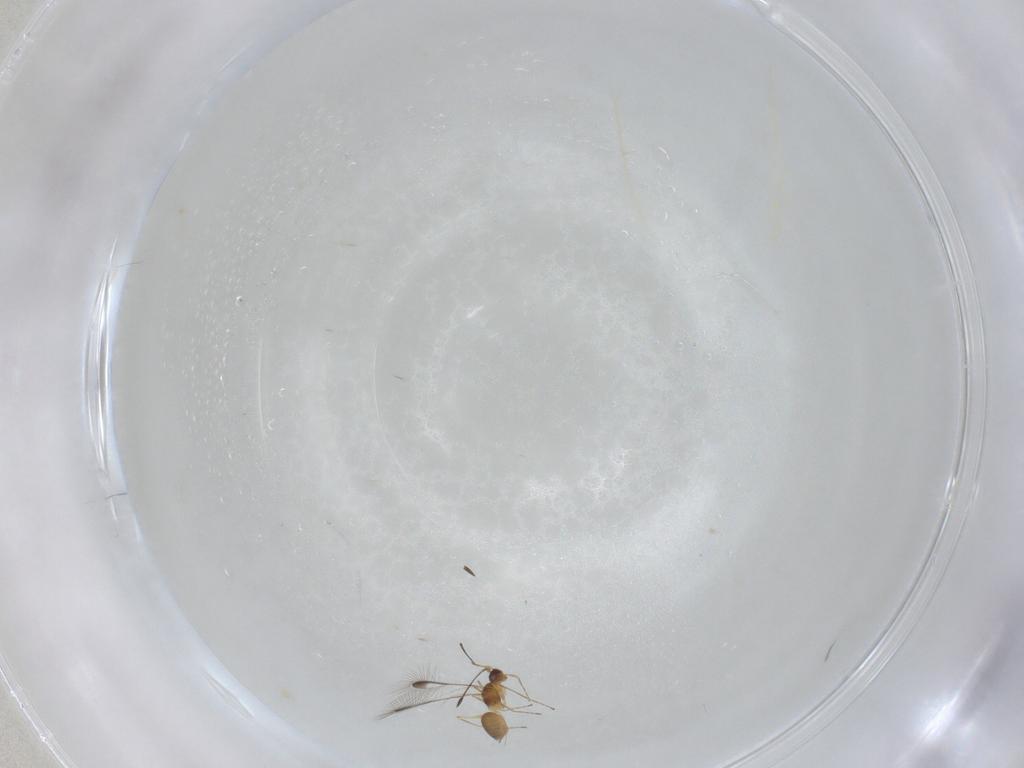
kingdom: Animalia
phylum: Arthropoda
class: Insecta
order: Hymenoptera
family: Mymaridae
